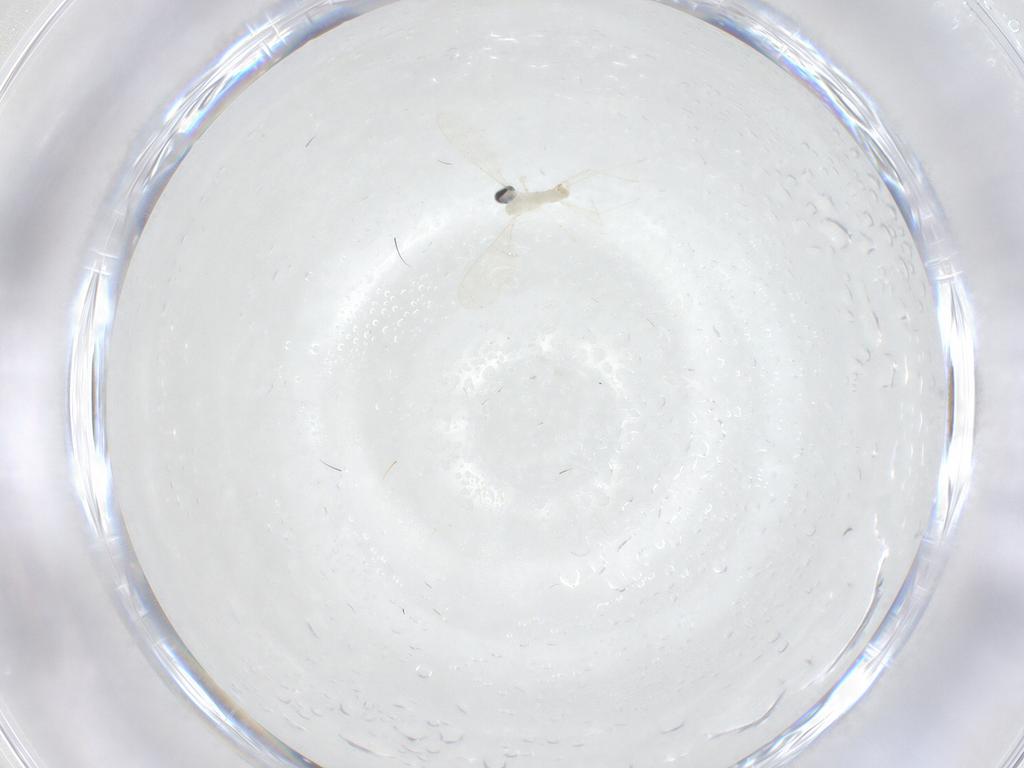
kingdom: Animalia
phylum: Arthropoda
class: Insecta
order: Diptera
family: Cecidomyiidae
